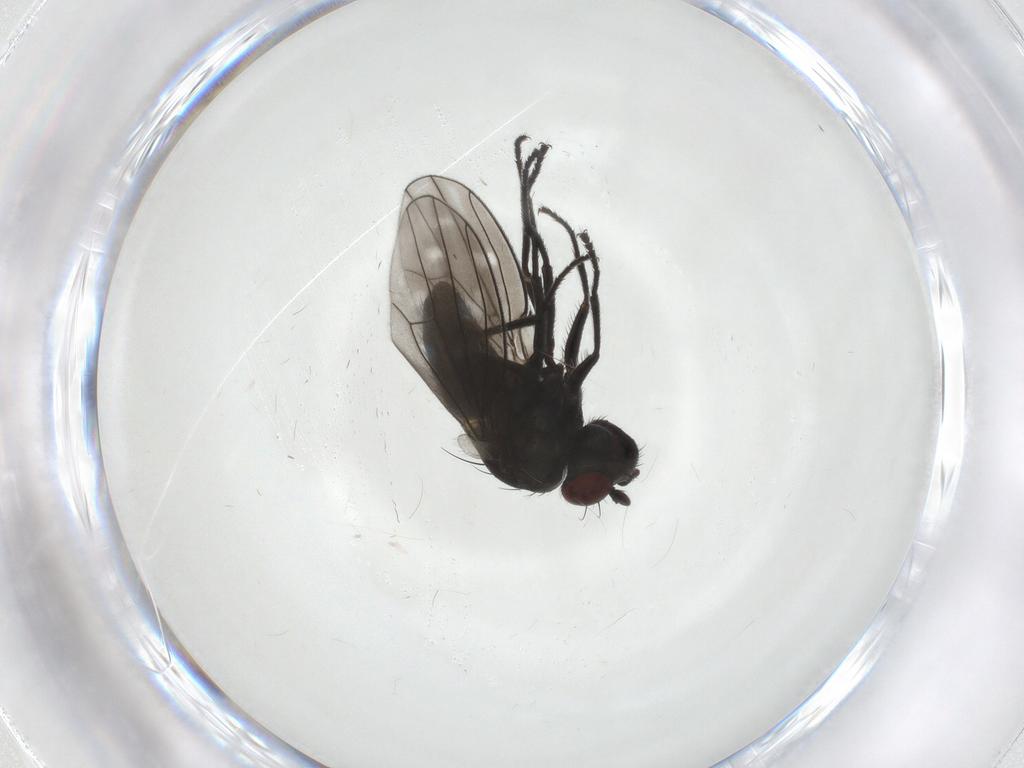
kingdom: Animalia
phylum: Arthropoda
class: Insecta
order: Diptera
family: Ephydridae
